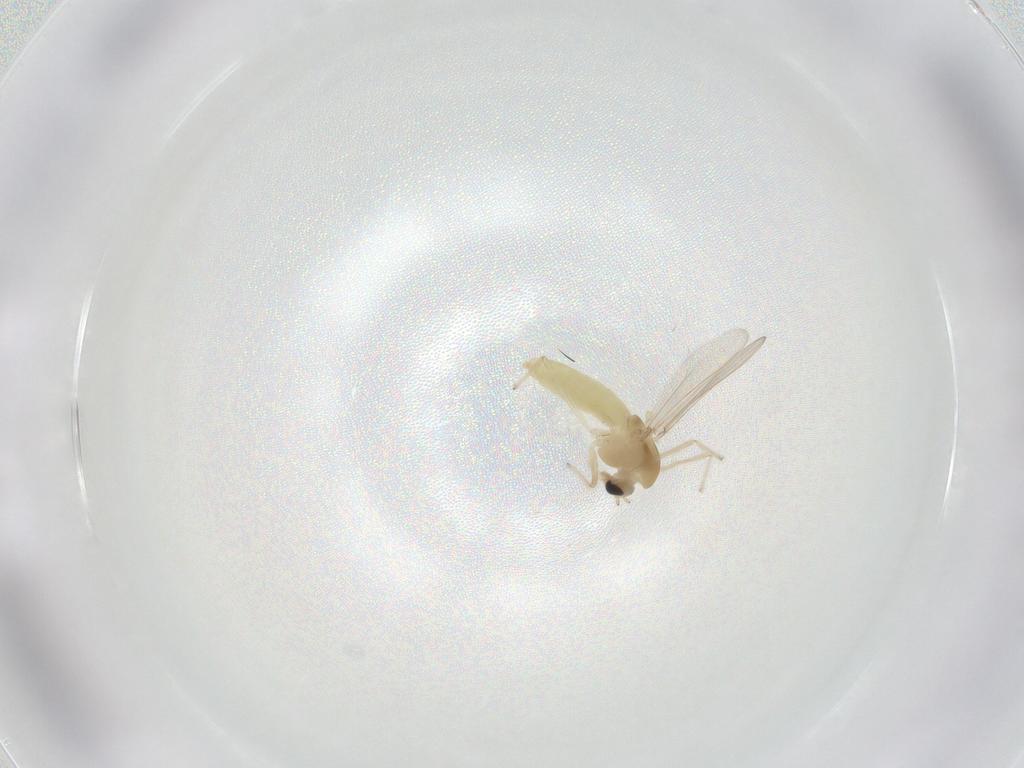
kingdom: Animalia
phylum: Arthropoda
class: Insecta
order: Diptera
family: Chironomidae
